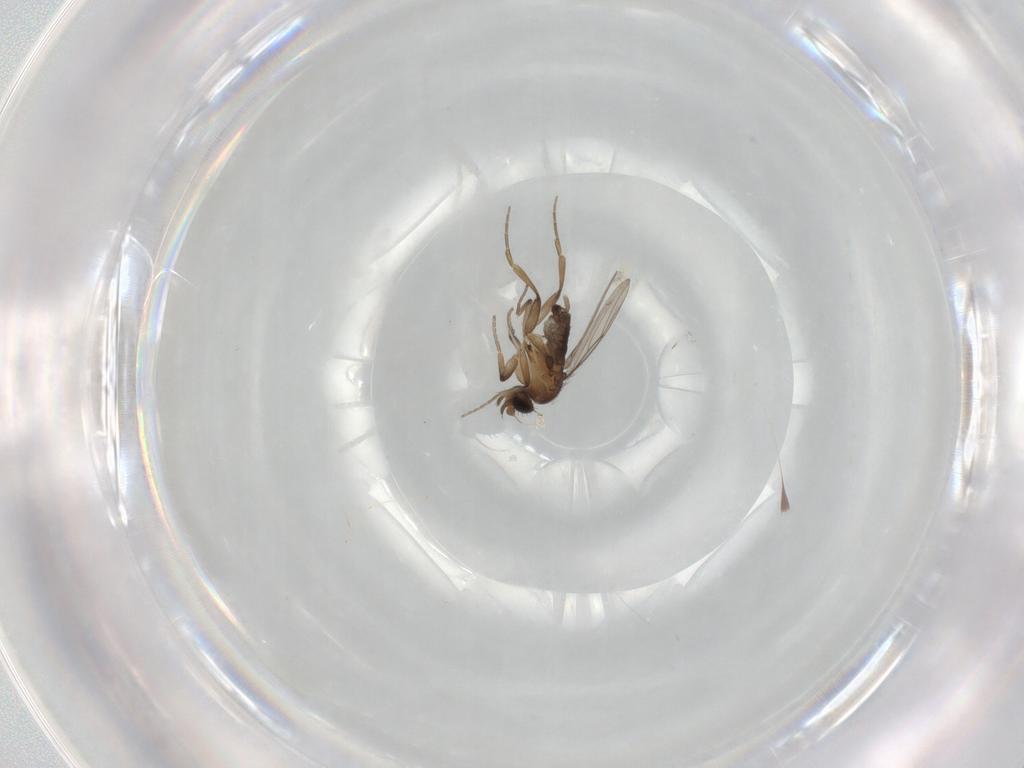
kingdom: Animalia
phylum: Arthropoda
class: Insecta
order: Diptera
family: Phoridae
